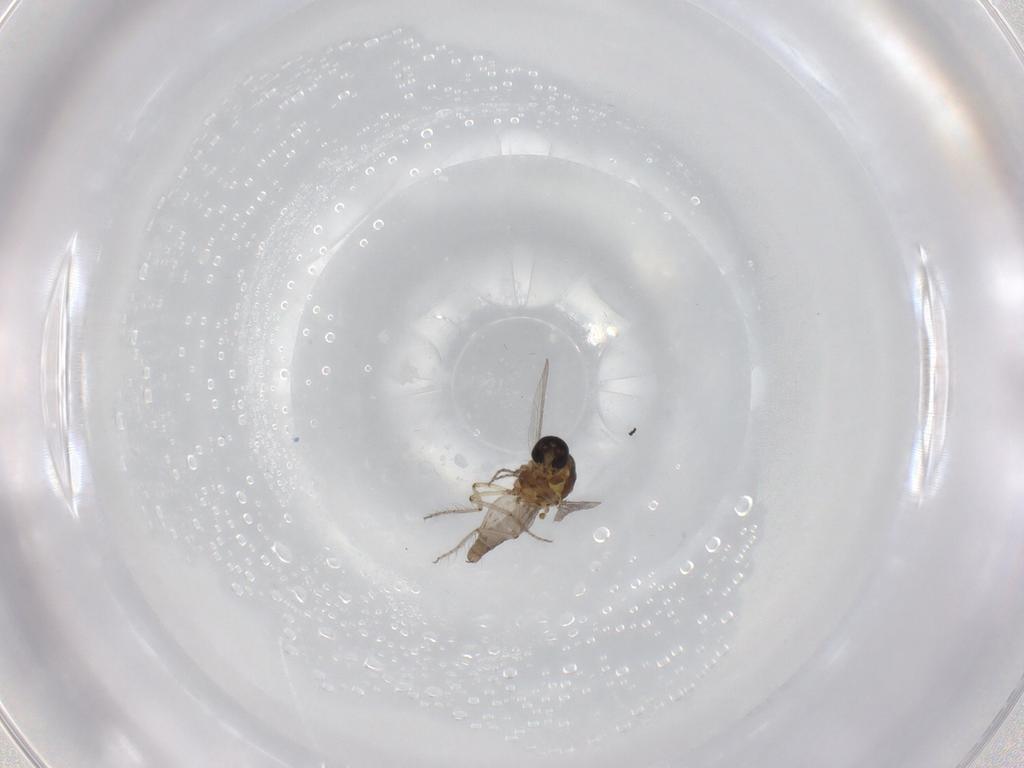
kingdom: Animalia
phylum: Arthropoda
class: Insecta
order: Diptera
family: Ceratopogonidae
